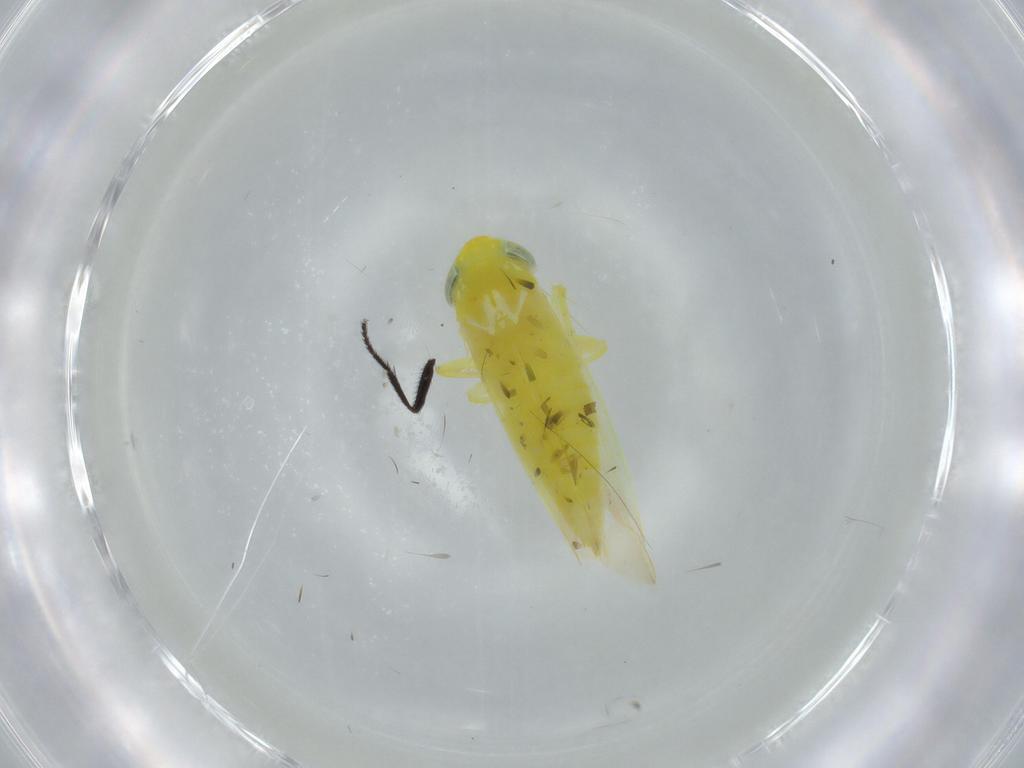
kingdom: Animalia
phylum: Arthropoda
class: Insecta
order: Hemiptera
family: Cicadellidae
